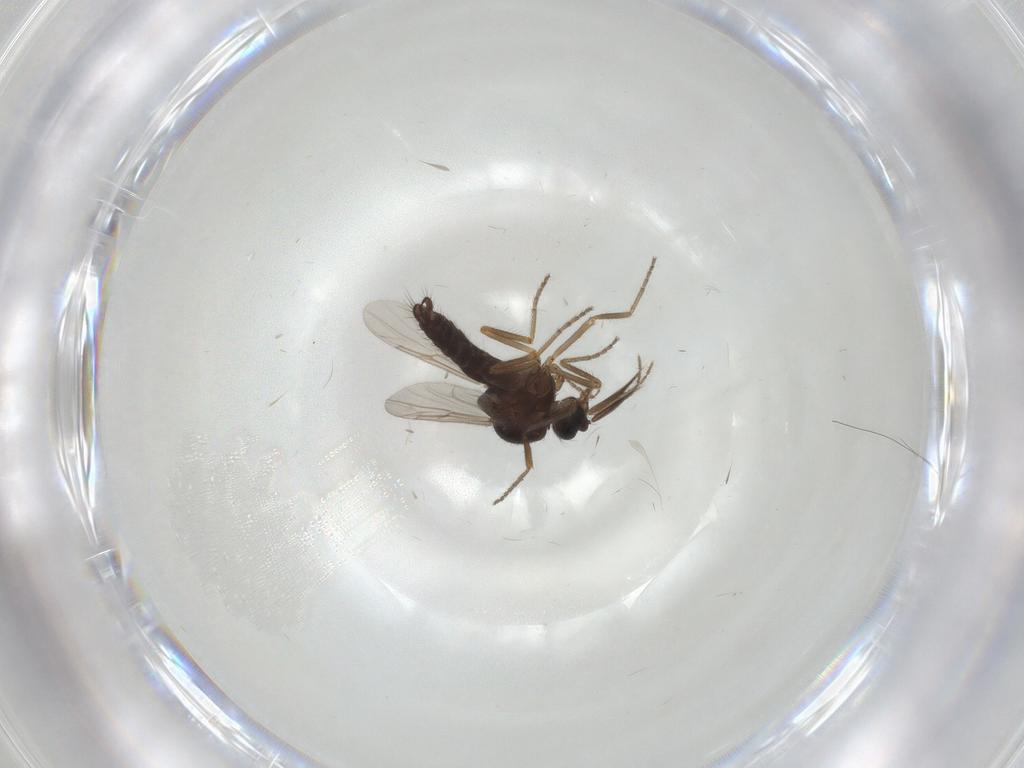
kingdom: Animalia
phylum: Arthropoda
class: Insecta
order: Diptera
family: Ceratopogonidae
